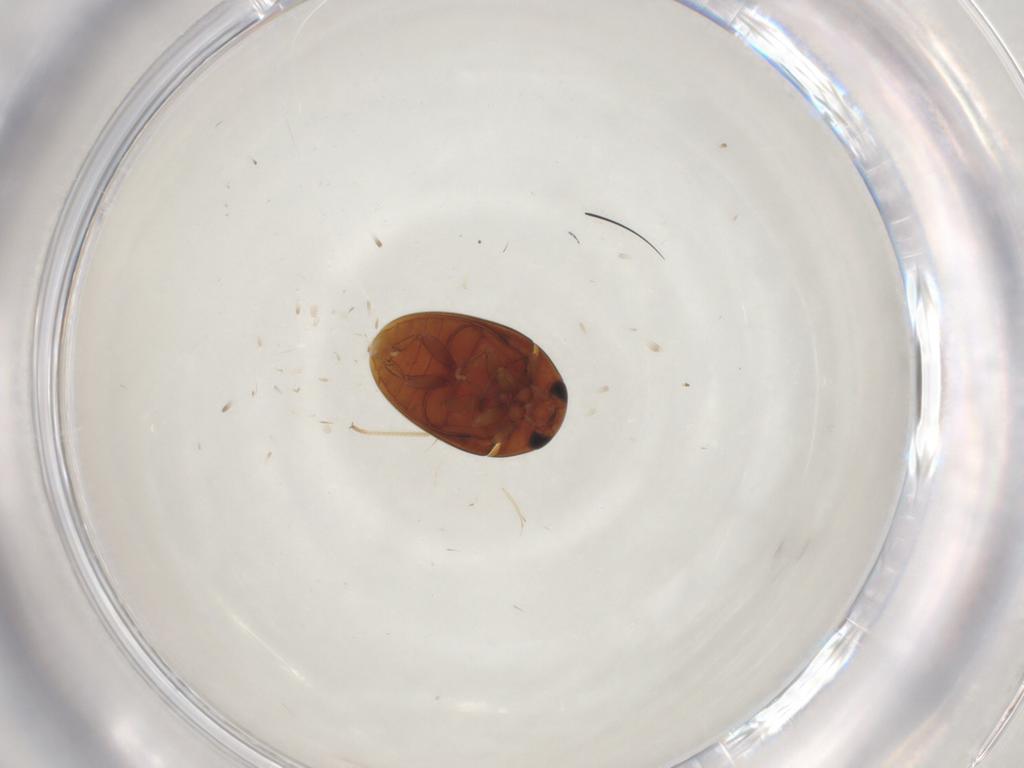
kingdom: Animalia
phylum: Arthropoda
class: Insecta
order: Coleoptera
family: Phalacridae
